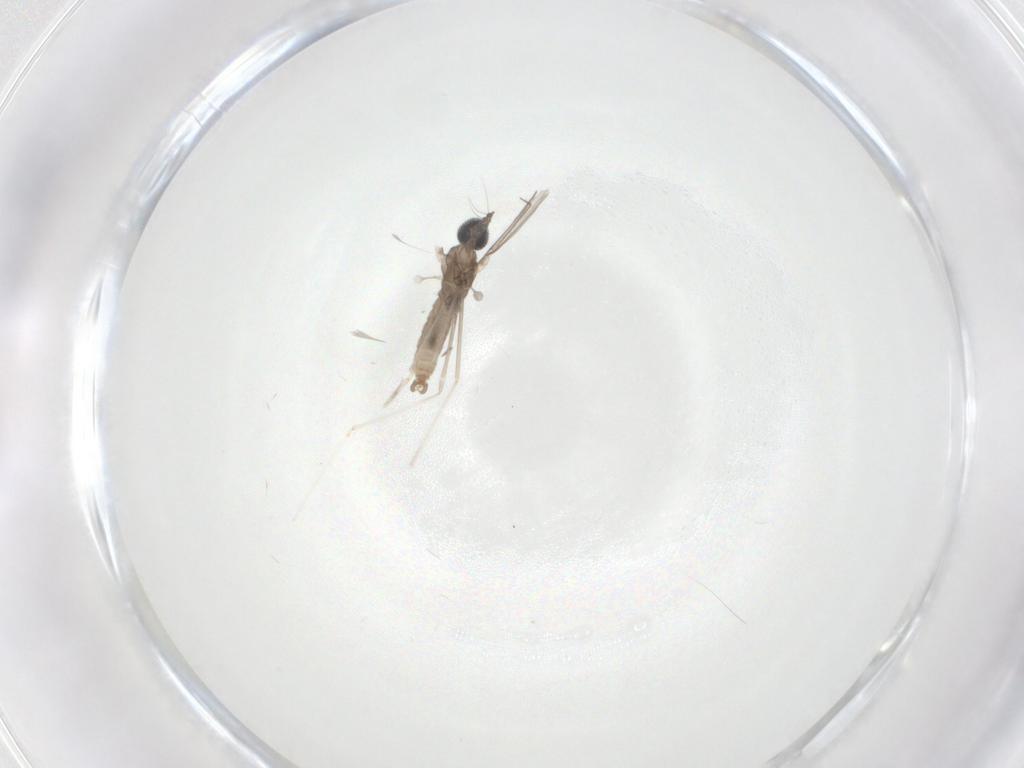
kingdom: Animalia
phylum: Arthropoda
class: Insecta
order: Diptera
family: Cecidomyiidae
